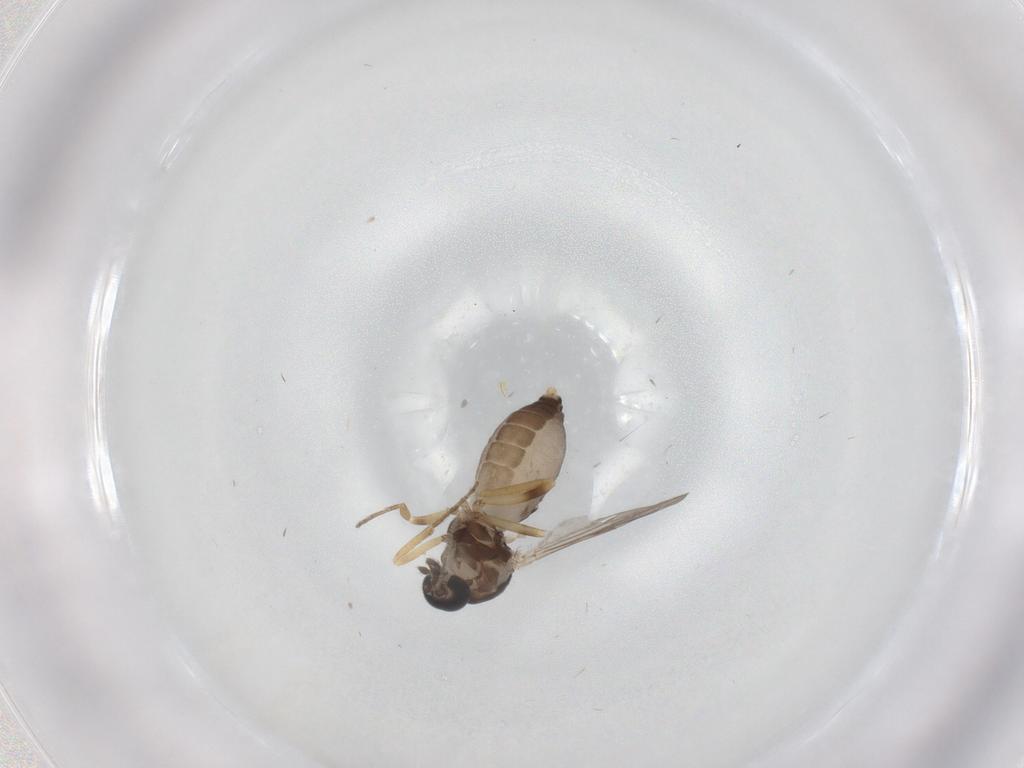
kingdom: Animalia
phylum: Arthropoda
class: Insecta
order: Diptera
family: Ceratopogonidae
